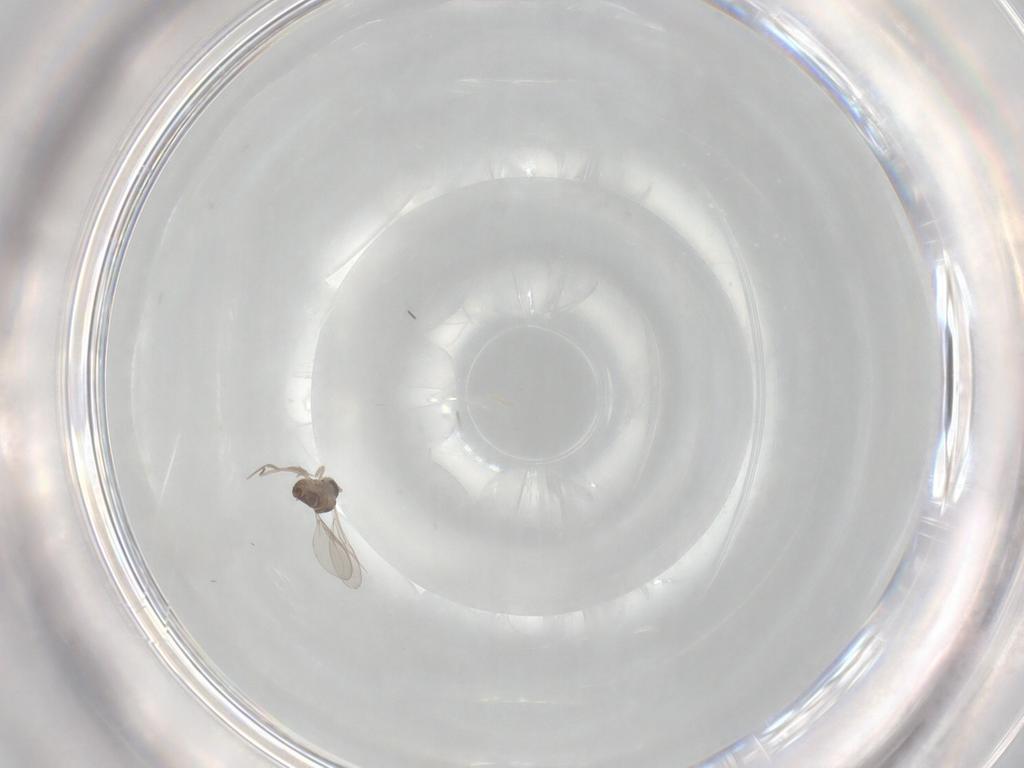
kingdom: Animalia
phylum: Arthropoda
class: Insecta
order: Diptera
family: Cecidomyiidae
